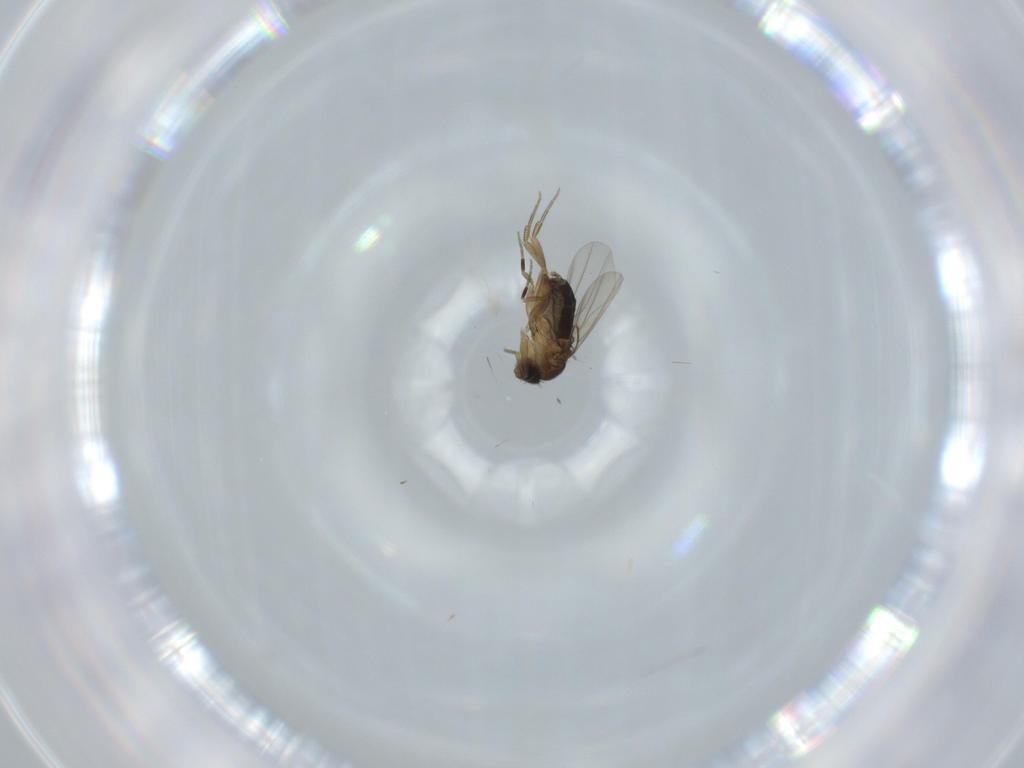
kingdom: Animalia
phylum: Arthropoda
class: Insecta
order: Diptera
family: Phoridae
